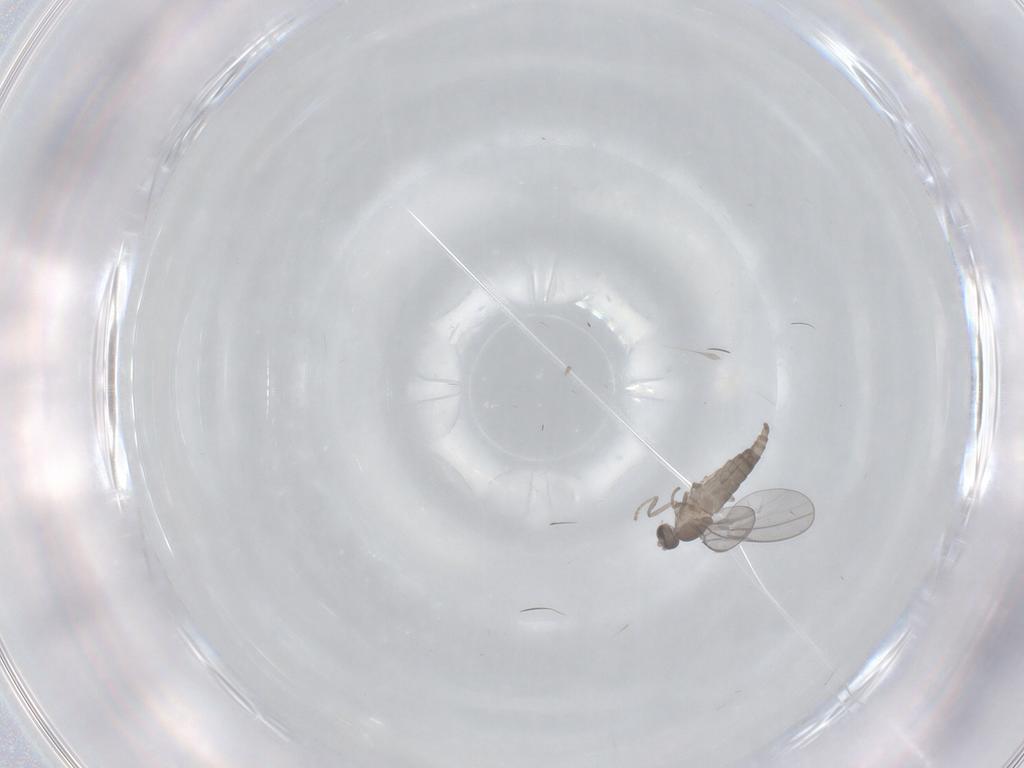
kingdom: Animalia
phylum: Arthropoda
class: Insecta
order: Diptera
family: Cecidomyiidae
